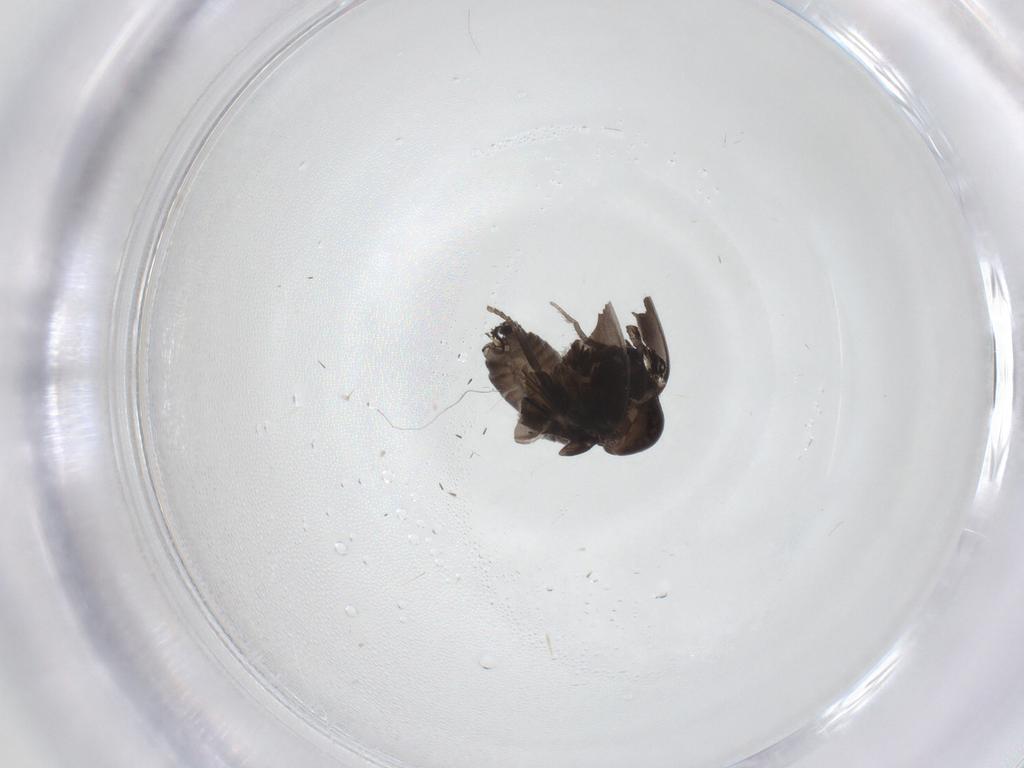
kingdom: Animalia
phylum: Arthropoda
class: Insecta
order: Diptera
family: Psychodidae
